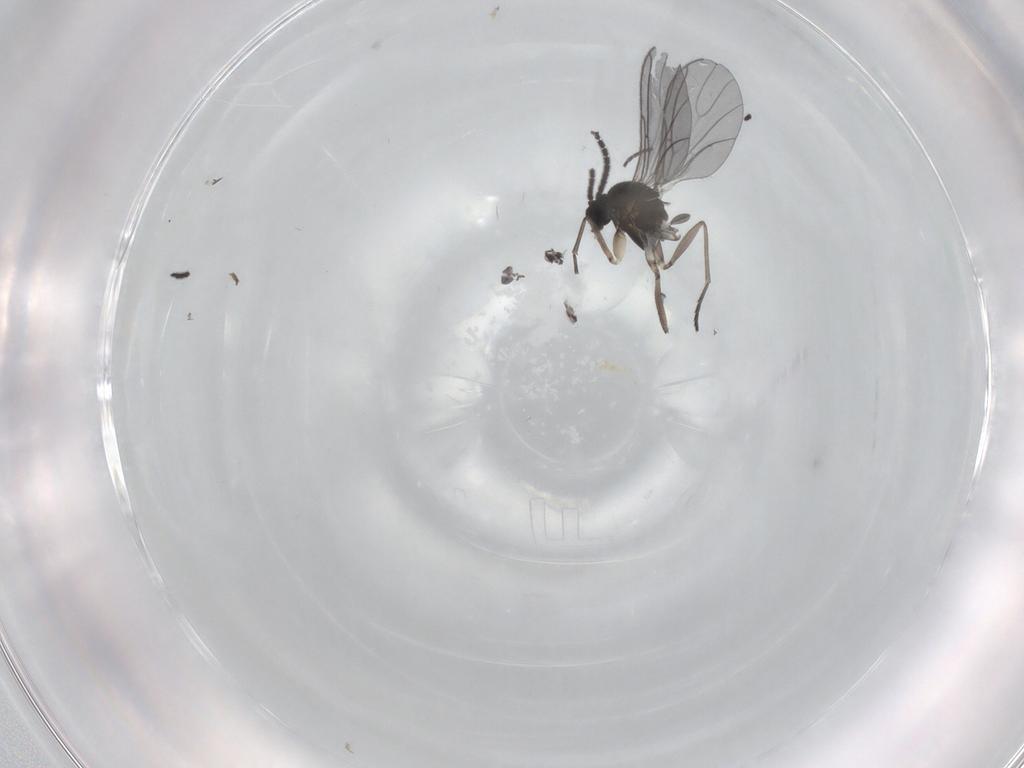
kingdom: Animalia
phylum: Arthropoda
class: Insecta
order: Diptera
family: Sciaridae
